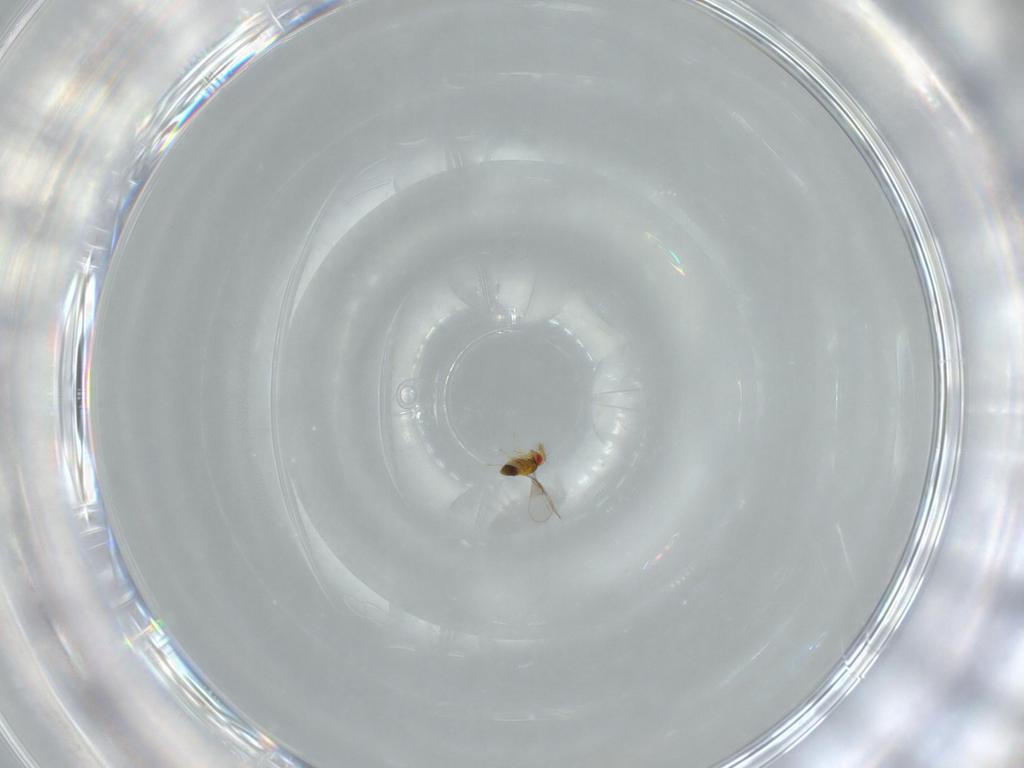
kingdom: Animalia
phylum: Arthropoda
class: Insecta
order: Hymenoptera
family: Trichogrammatidae
